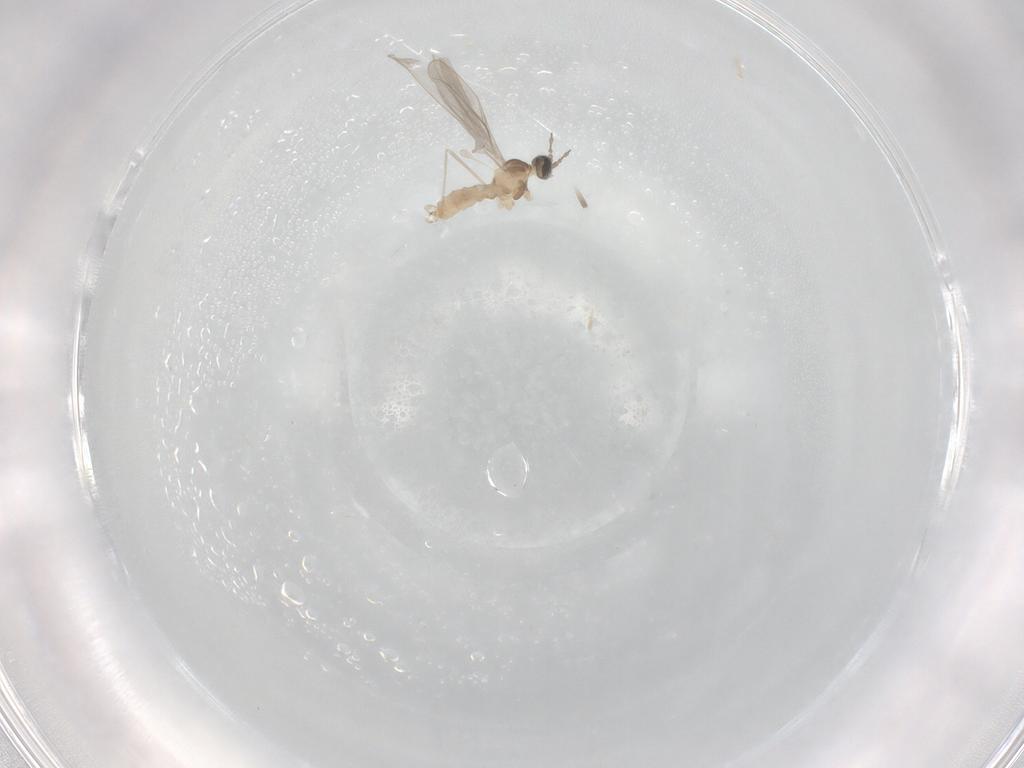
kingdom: Animalia
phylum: Arthropoda
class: Insecta
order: Diptera
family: Cecidomyiidae
